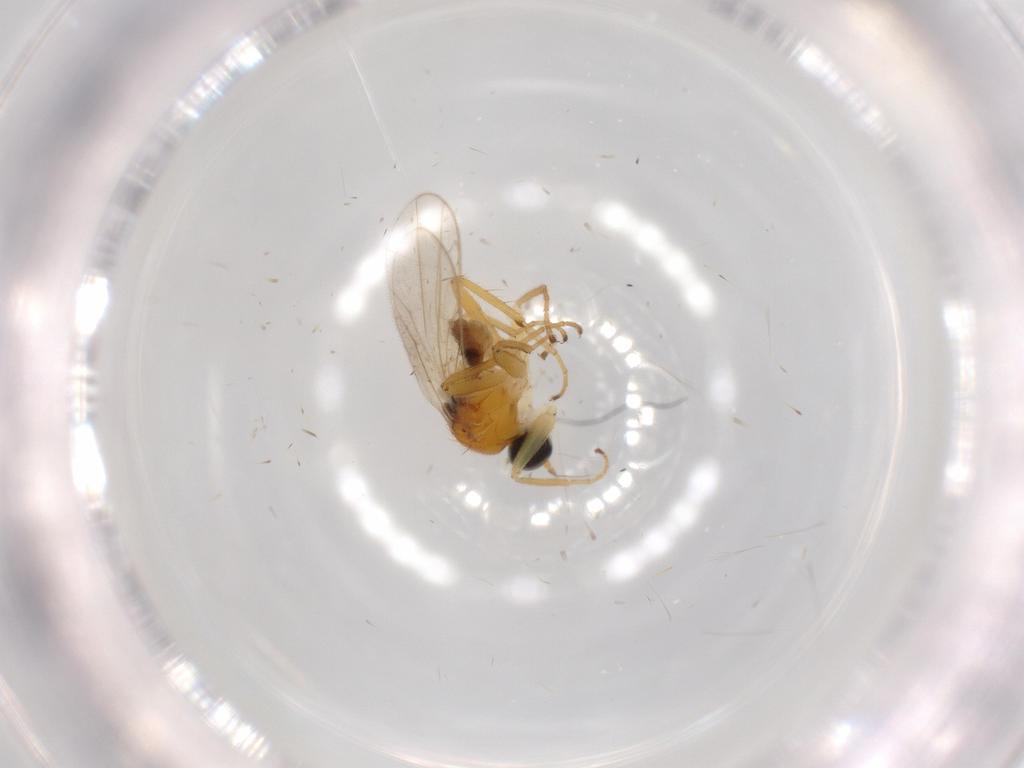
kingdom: Animalia
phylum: Arthropoda
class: Insecta
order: Diptera
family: Hybotidae
